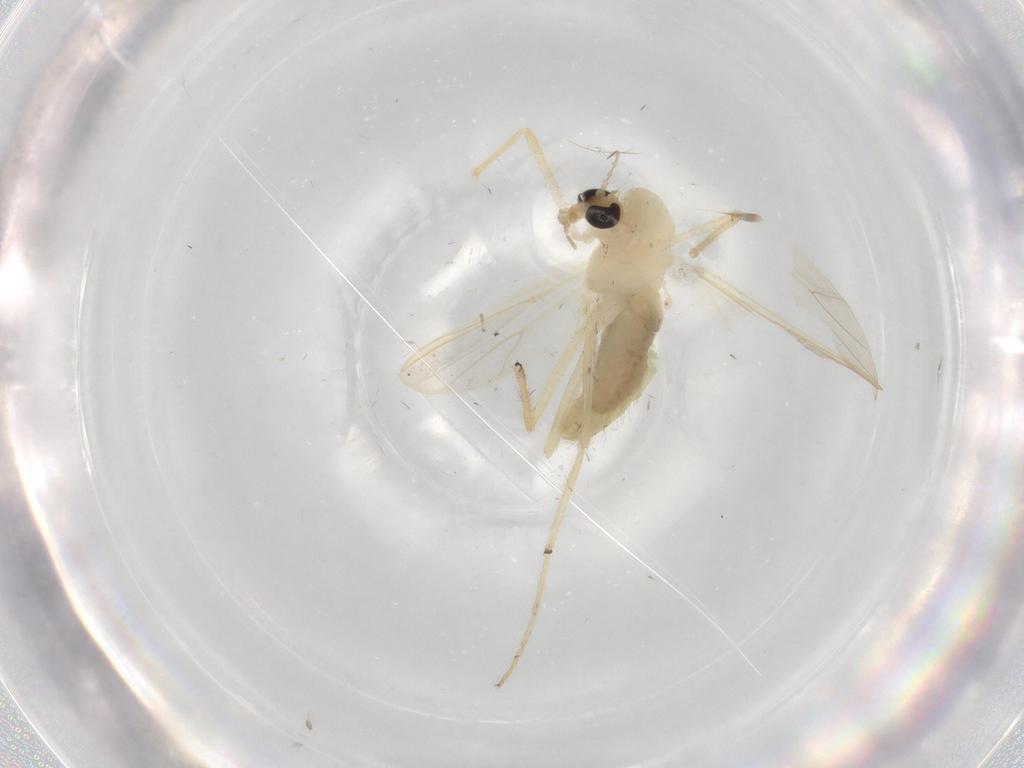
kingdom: Animalia
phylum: Arthropoda
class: Insecta
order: Diptera
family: Chironomidae
